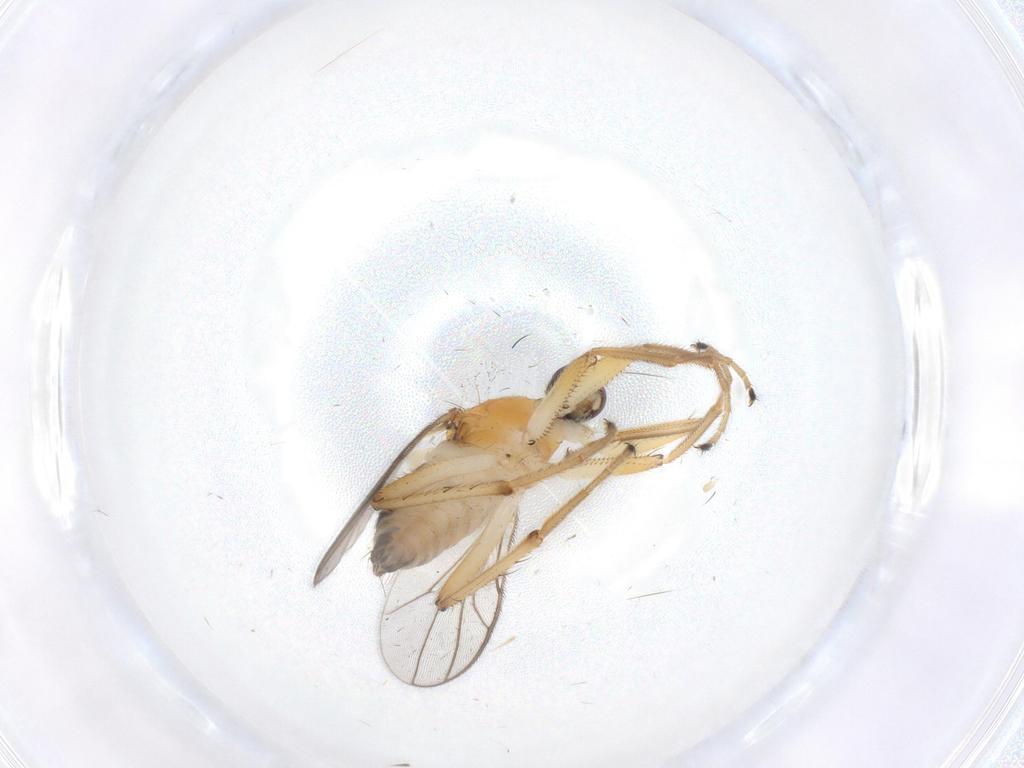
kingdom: Animalia
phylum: Arthropoda
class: Insecta
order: Diptera
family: Hybotidae
